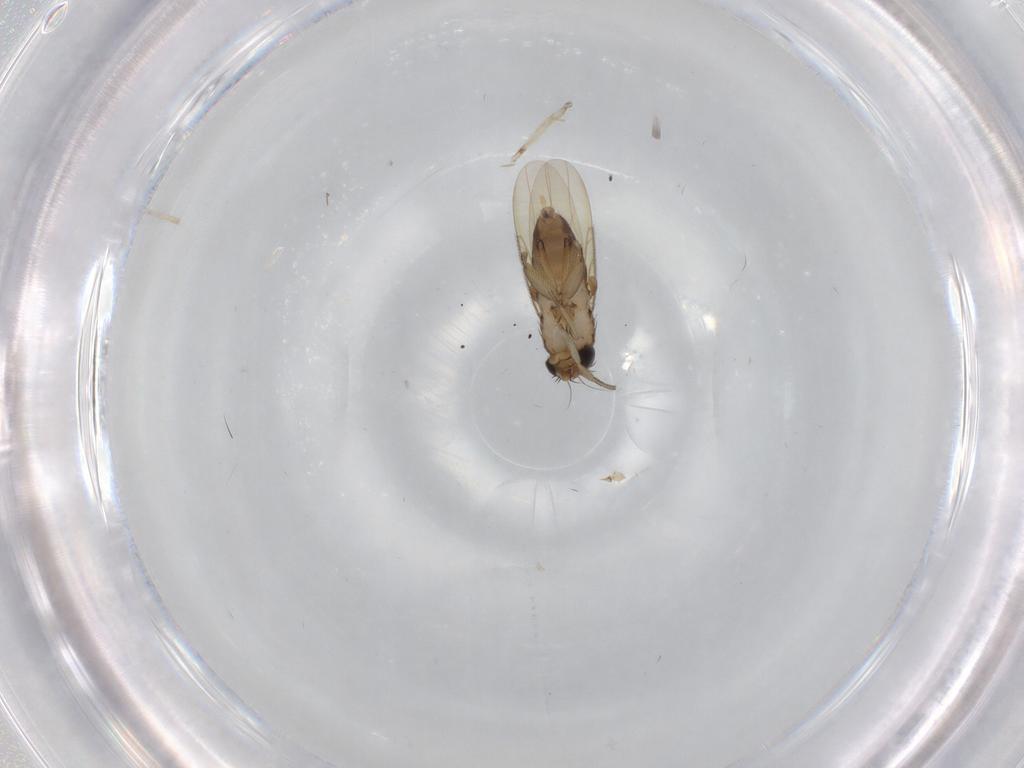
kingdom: Animalia
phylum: Arthropoda
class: Insecta
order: Diptera
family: Phoridae
